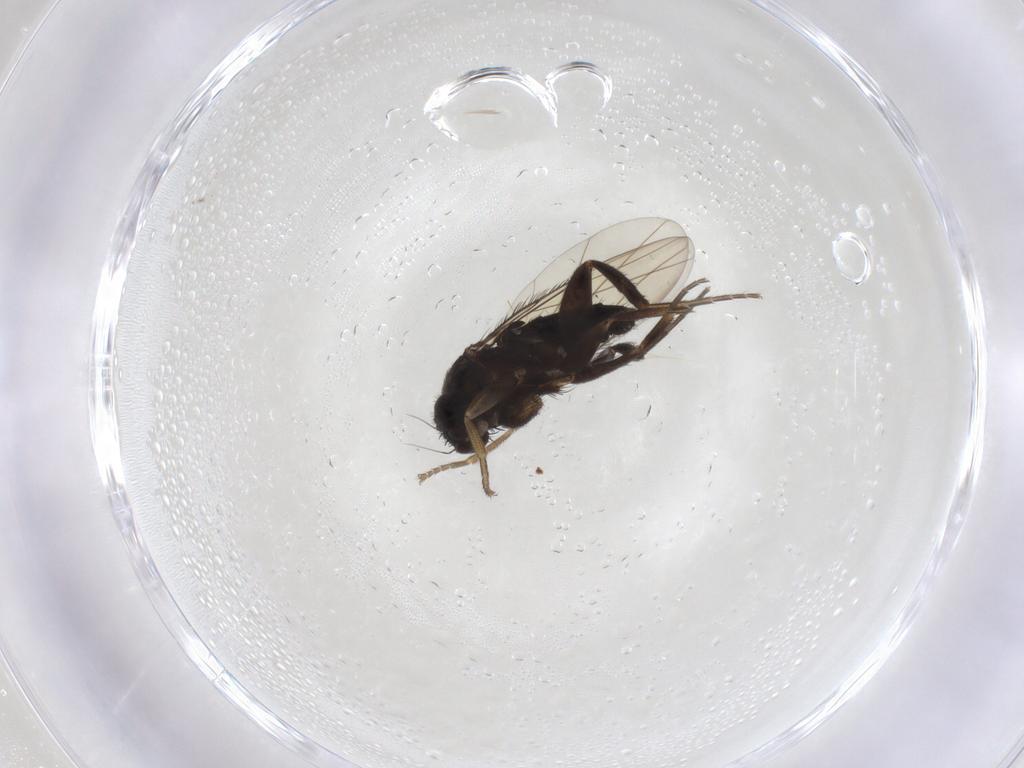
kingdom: Animalia
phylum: Arthropoda
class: Insecta
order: Diptera
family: Phoridae
